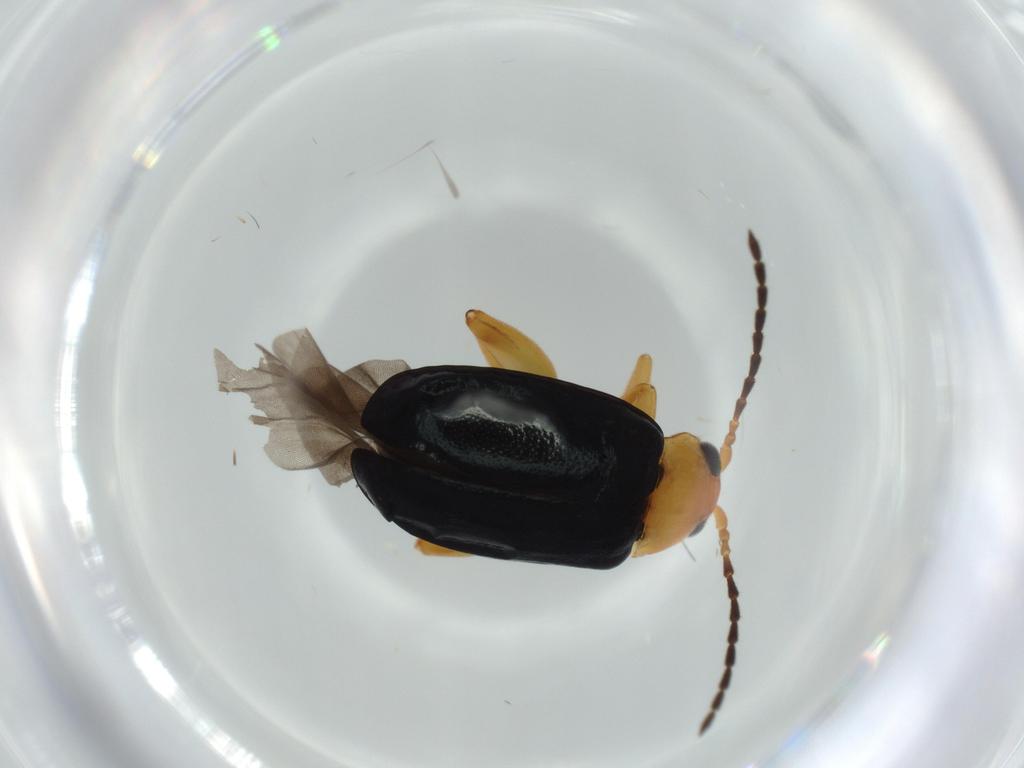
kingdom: Animalia
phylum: Arthropoda
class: Insecta
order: Coleoptera
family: Chrysomelidae
